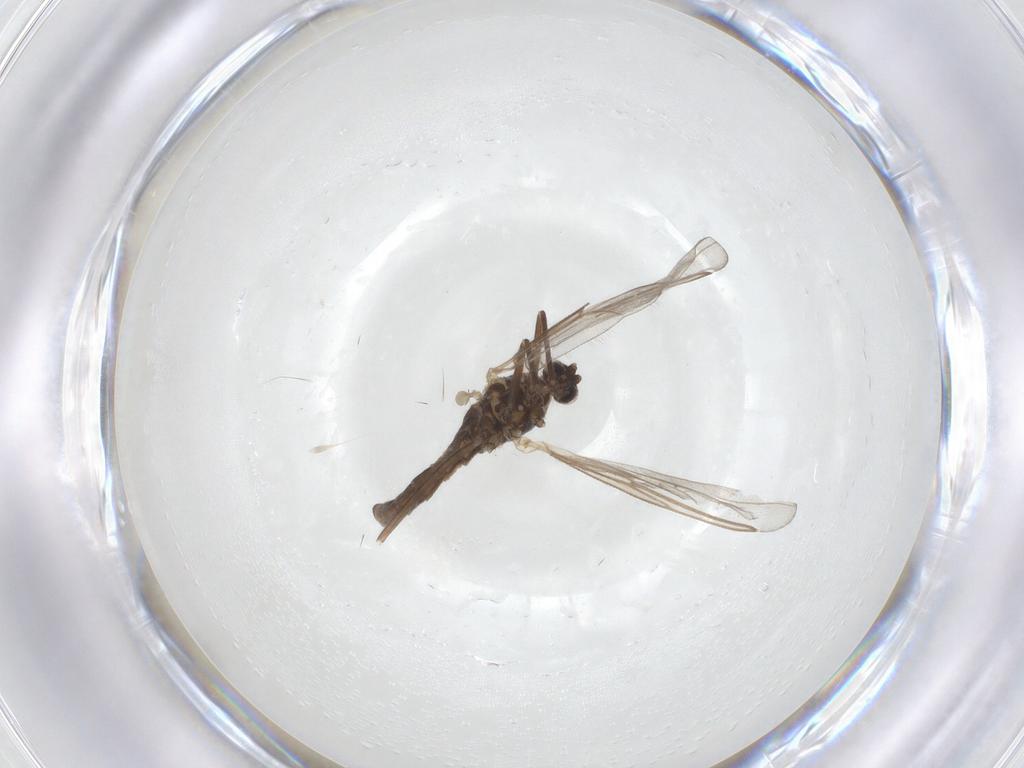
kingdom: Animalia
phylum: Arthropoda
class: Insecta
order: Diptera
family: Cecidomyiidae
